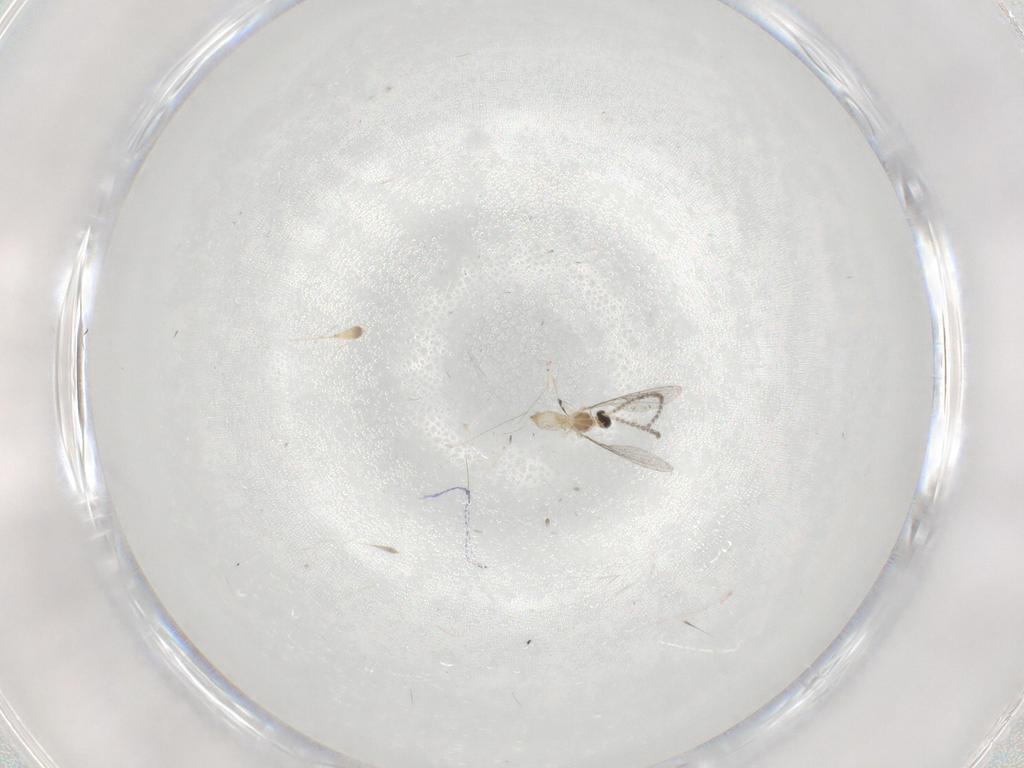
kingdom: Animalia
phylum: Arthropoda
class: Insecta
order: Diptera
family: Cecidomyiidae
